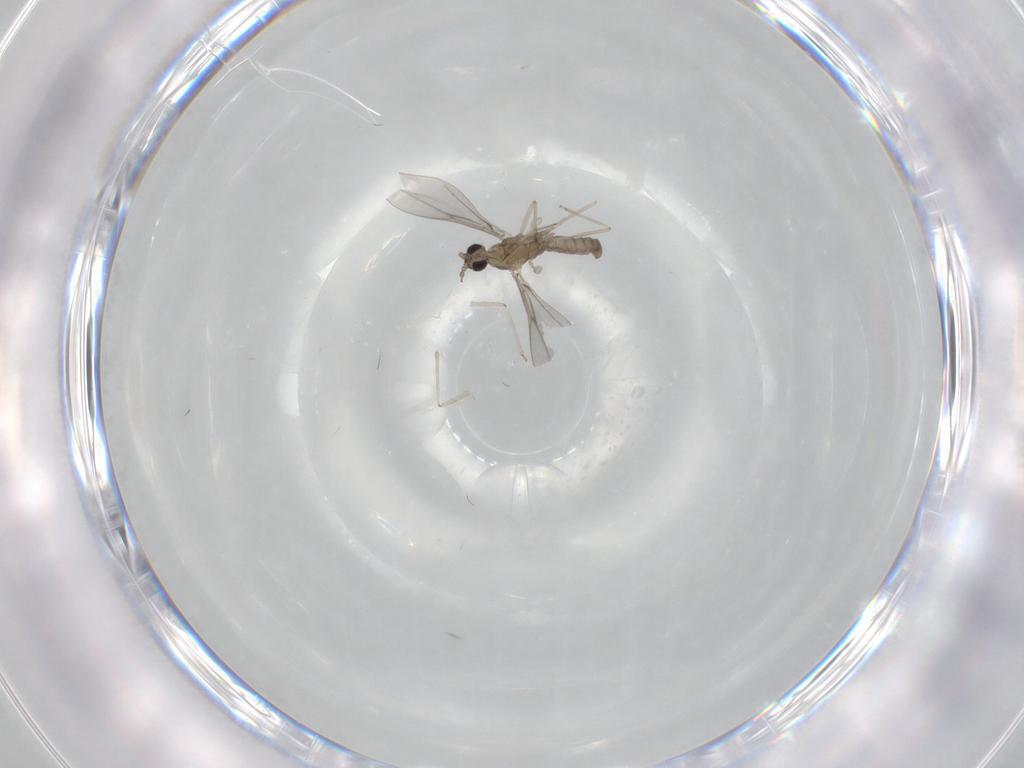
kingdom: Animalia
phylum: Arthropoda
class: Insecta
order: Diptera
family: Cecidomyiidae
